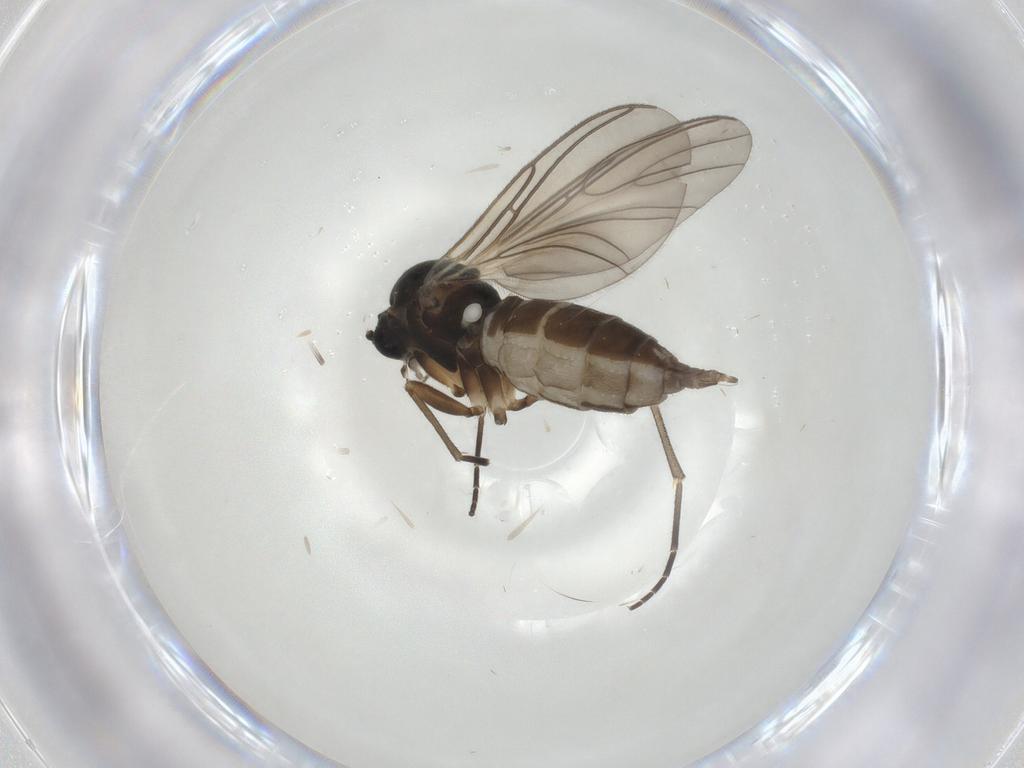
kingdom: Animalia
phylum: Arthropoda
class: Insecta
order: Diptera
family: Sciaridae
